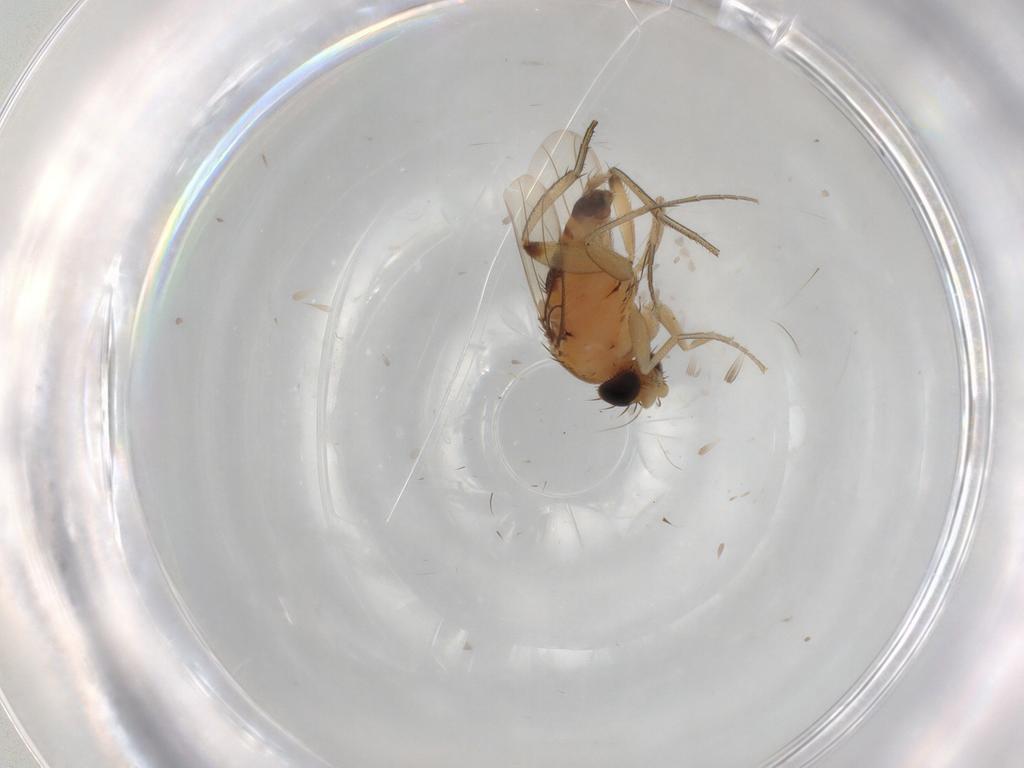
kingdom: Animalia
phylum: Arthropoda
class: Insecta
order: Diptera
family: Phoridae
